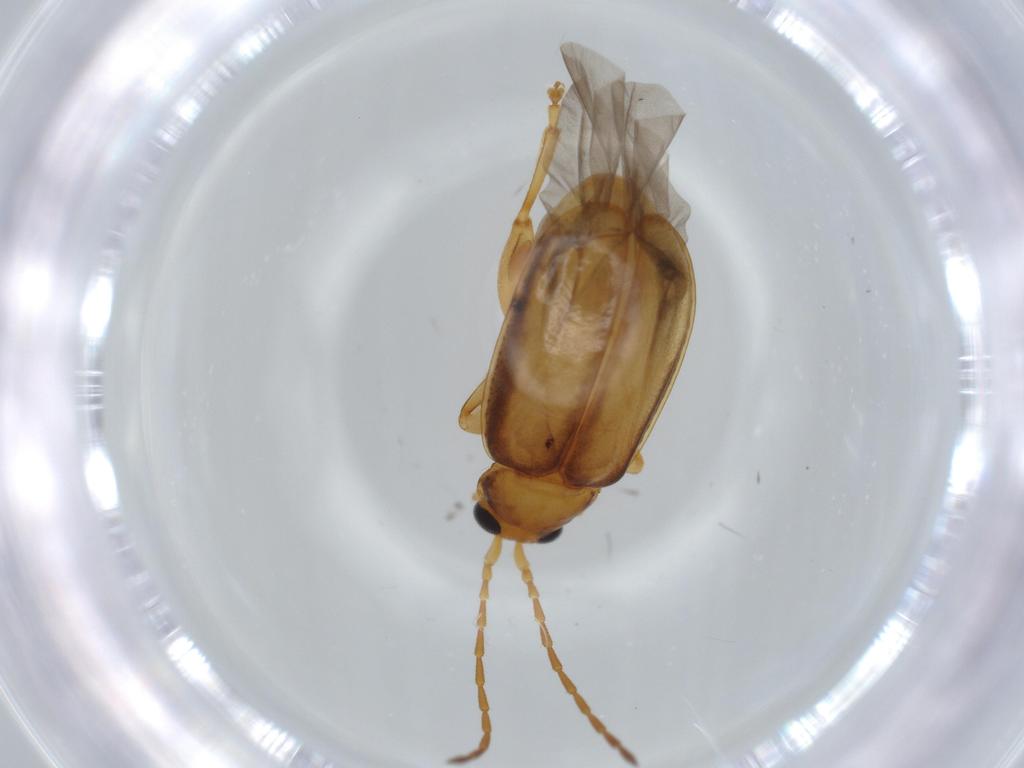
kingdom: Animalia
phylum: Arthropoda
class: Insecta
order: Coleoptera
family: Chrysomelidae
